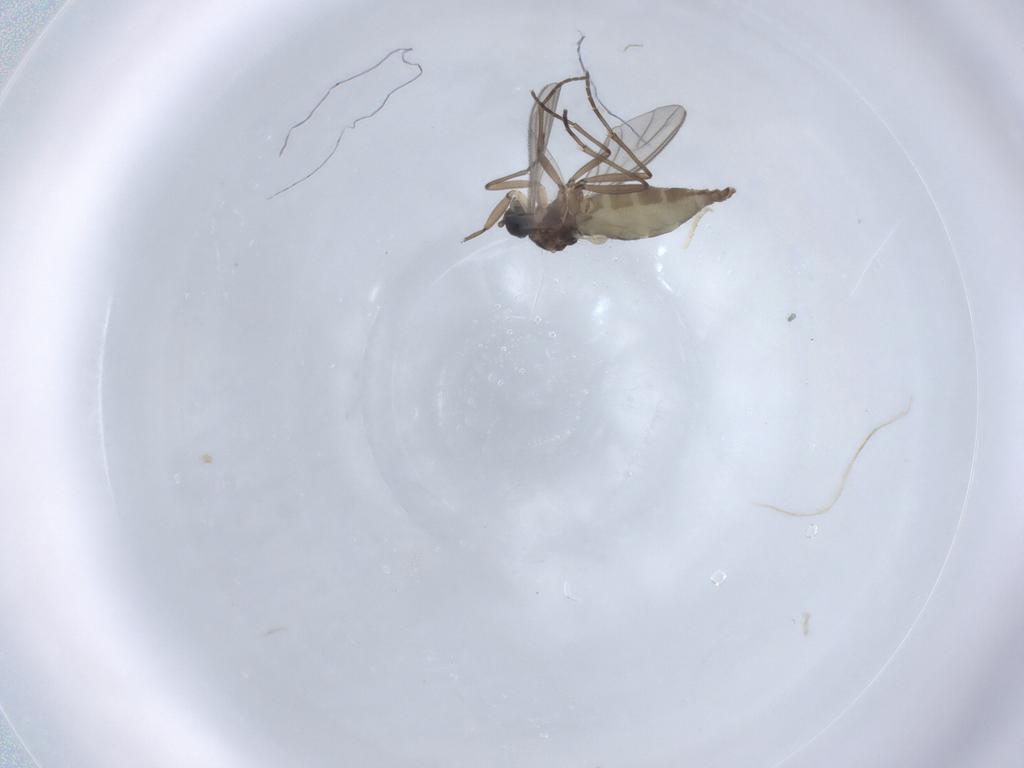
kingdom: Animalia
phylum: Arthropoda
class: Insecta
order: Diptera
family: Phoridae
